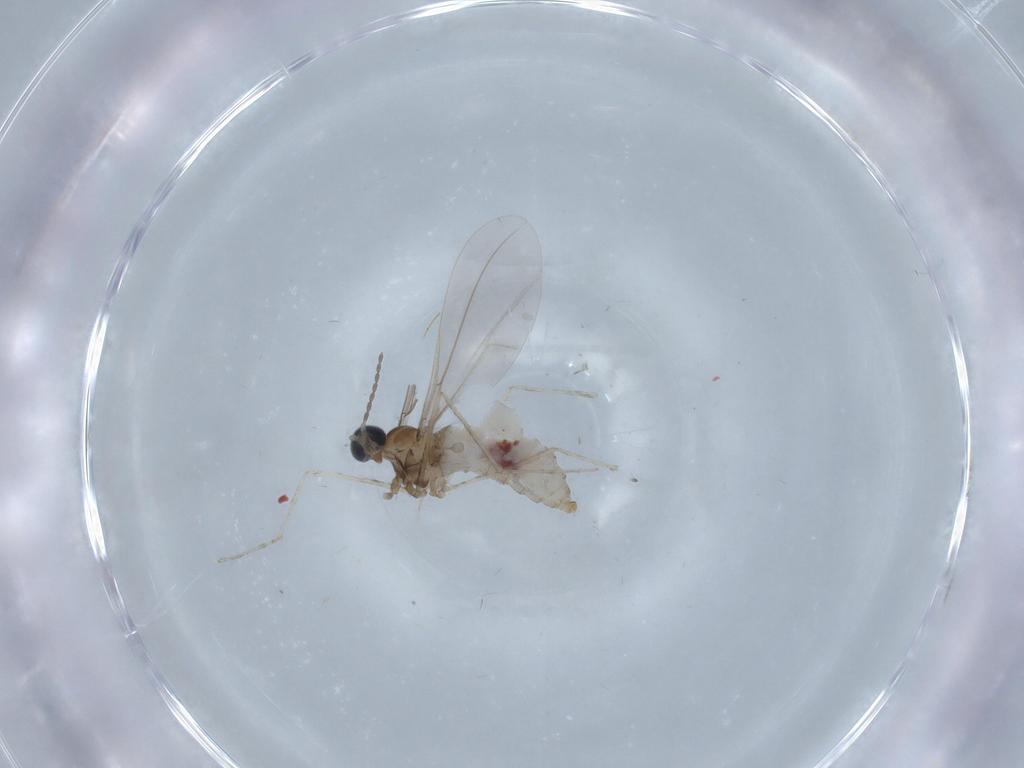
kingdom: Animalia
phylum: Arthropoda
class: Insecta
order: Diptera
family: Cecidomyiidae
